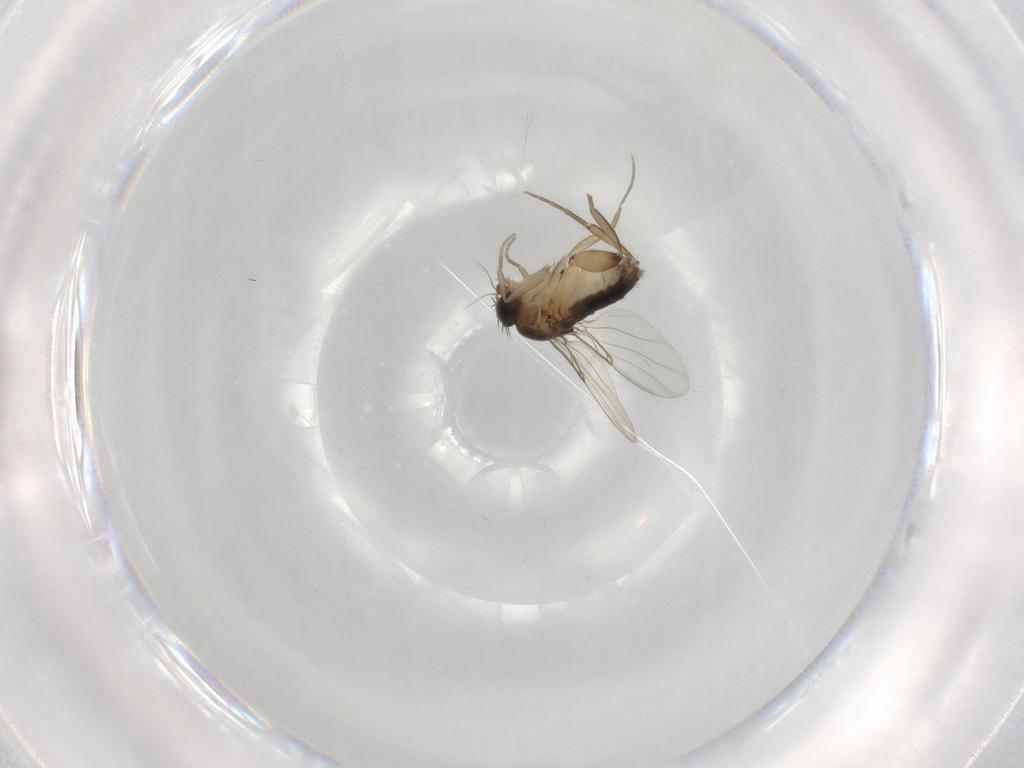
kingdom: Animalia
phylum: Arthropoda
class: Insecta
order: Diptera
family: Phoridae
